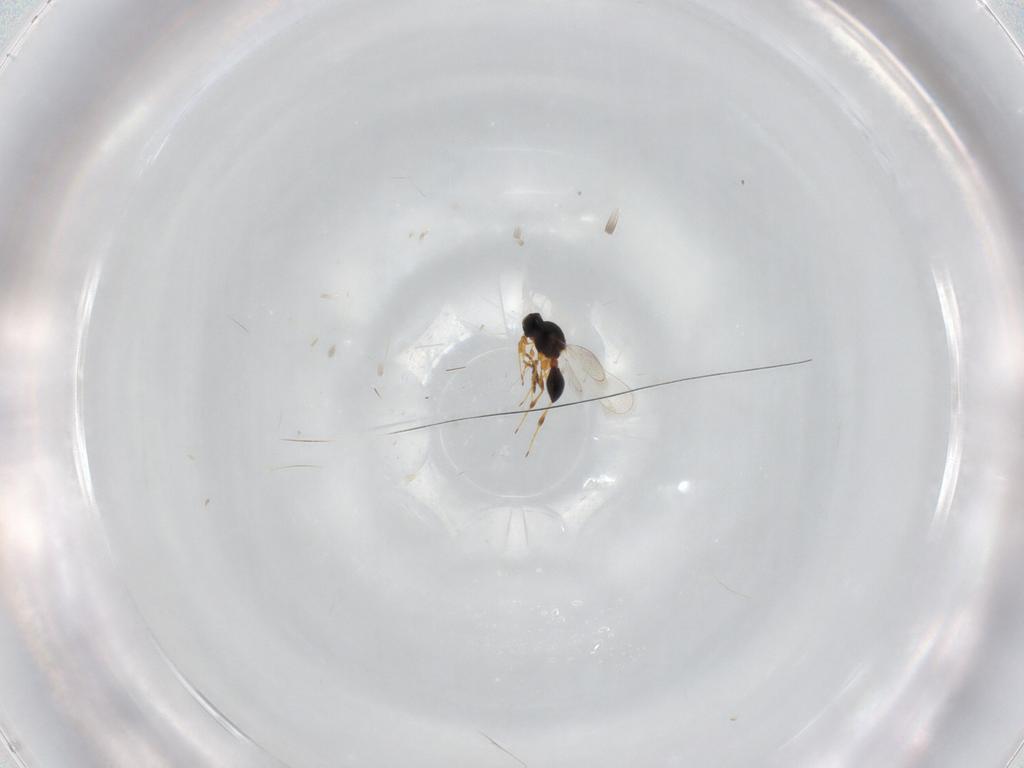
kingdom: Animalia
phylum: Arthropoda
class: Insecta
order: Hymenoptera
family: Platygastridae
